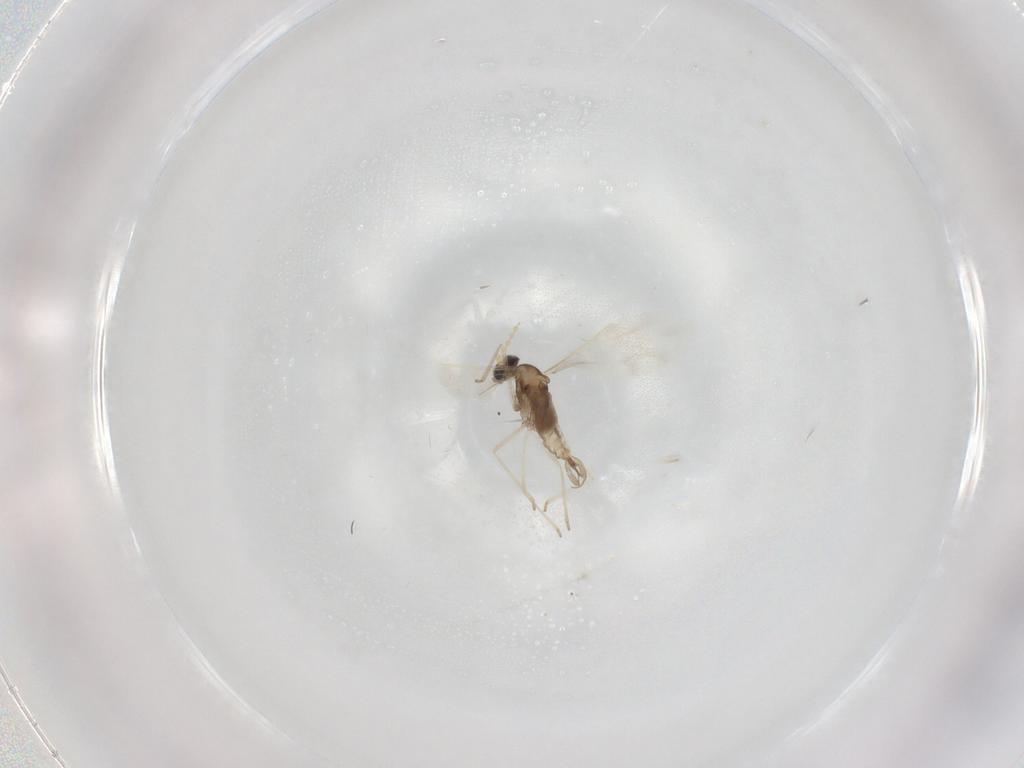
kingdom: Animalia
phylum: Arthropoda
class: Insecta
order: Diptera
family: Cecidomyiidae
